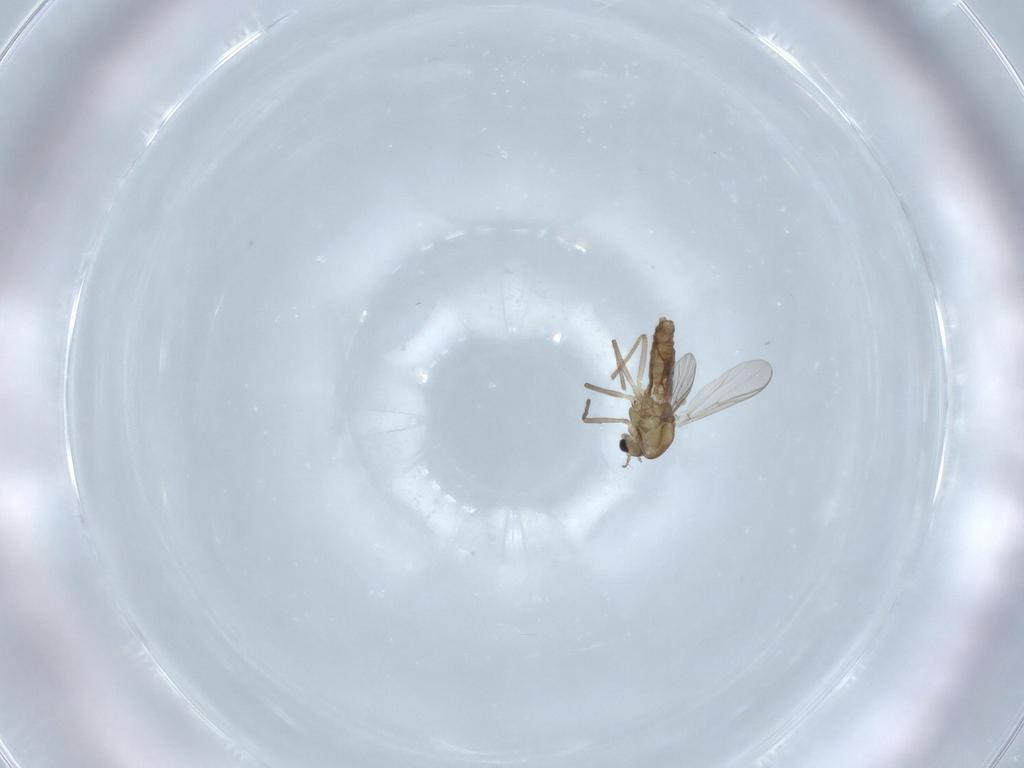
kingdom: Animalia
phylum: Arthropoda
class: Insecta
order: Diptera
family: Chironomidae
